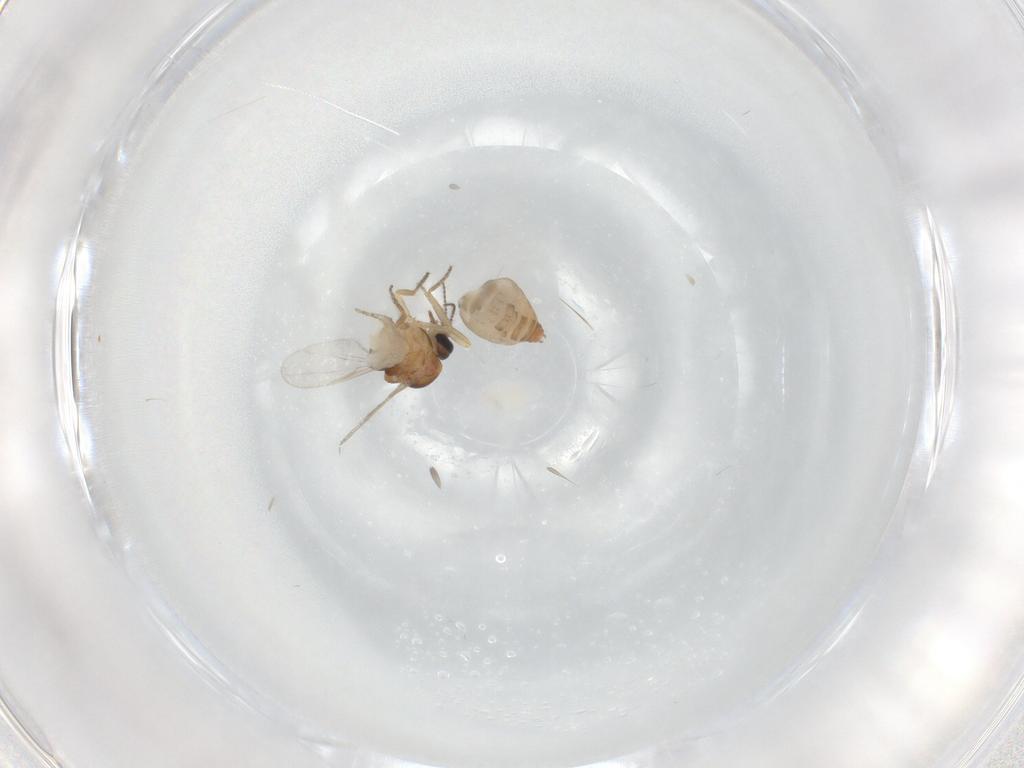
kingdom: Animalia
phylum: Arthropoda
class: Insecta
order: Diptera
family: Ceratopogonidae
